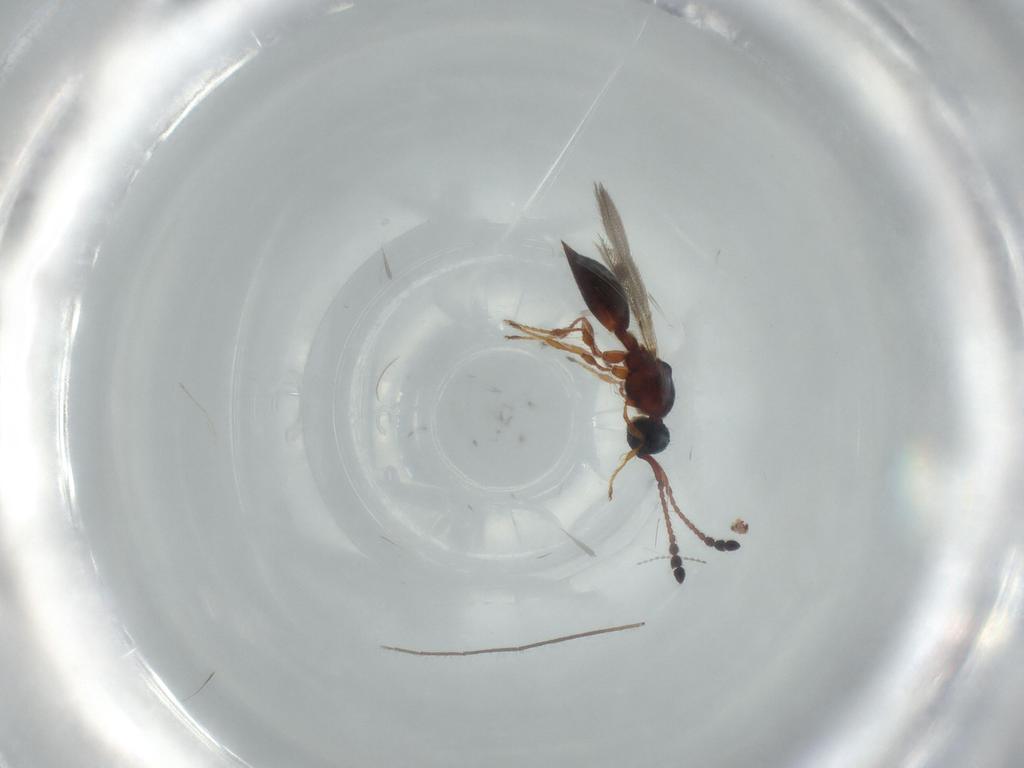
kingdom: Animalia
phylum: Arthropoda
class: Insecta
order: Hymenoptera
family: Diapriidae
